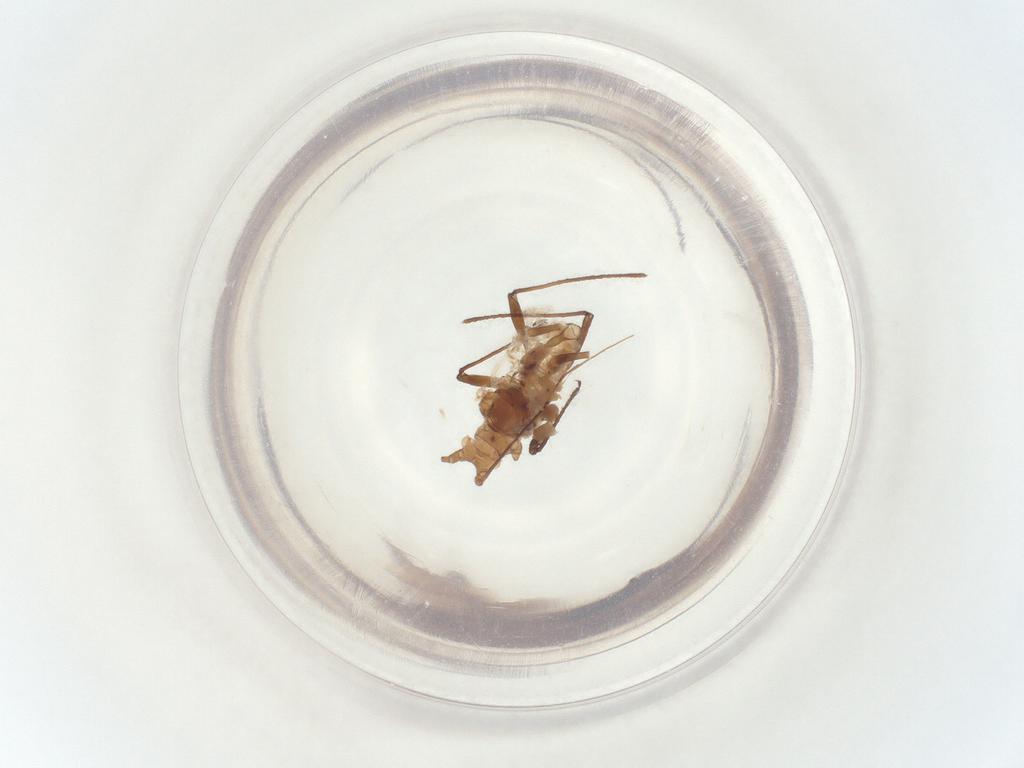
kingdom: Animalia
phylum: Arthropoda
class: Insecta
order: Hemiptera
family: Aphididae
